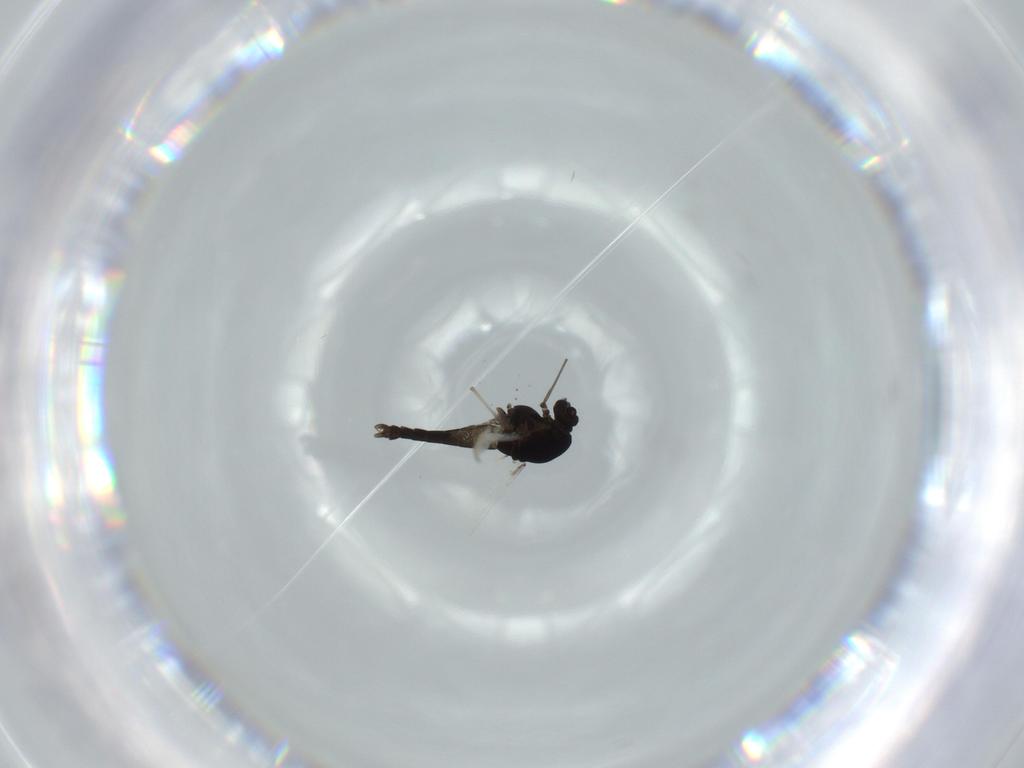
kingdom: Animalia
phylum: Arthropoda
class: Insecta
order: Diptera
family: Chironomidae
